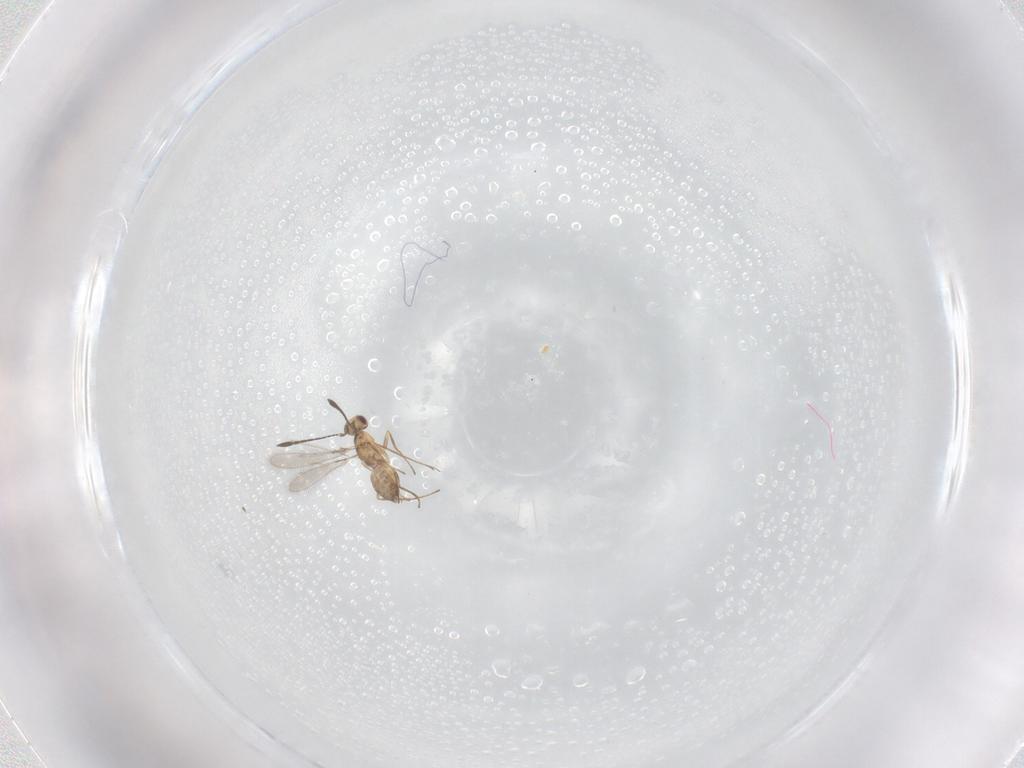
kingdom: Animalia
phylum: Arthropoda
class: Insecta
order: Hymenoptera
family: Mymaridae
